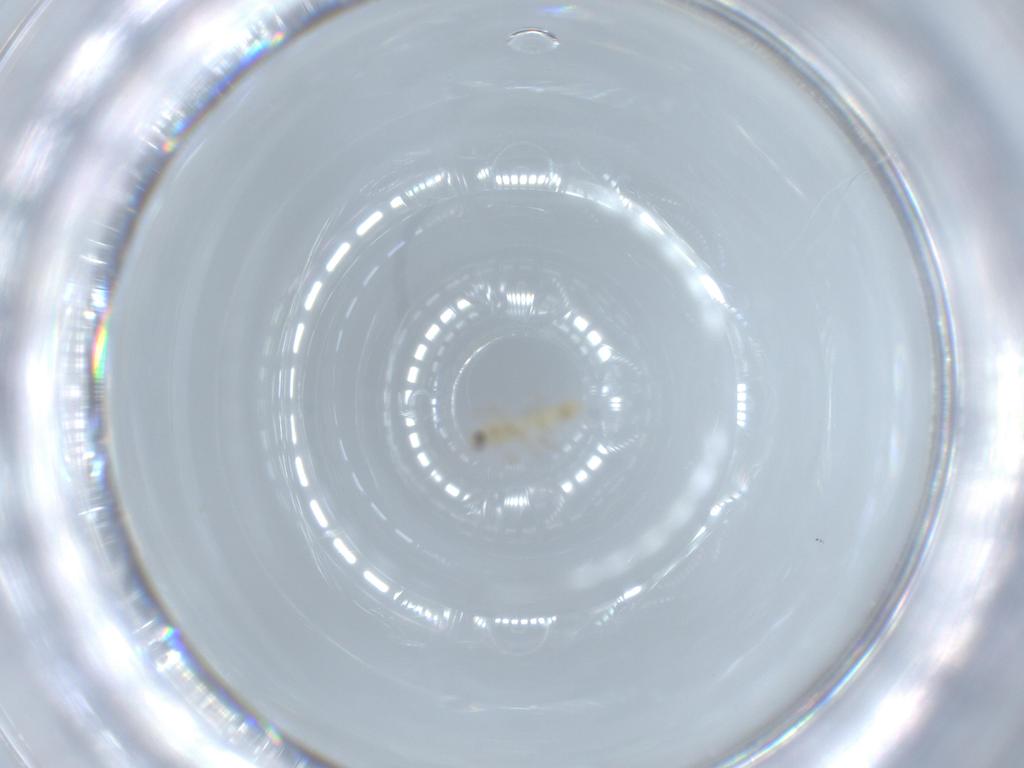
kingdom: Animalia
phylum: Arthropoda
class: Insecta
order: Diptera
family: Chironomidae
